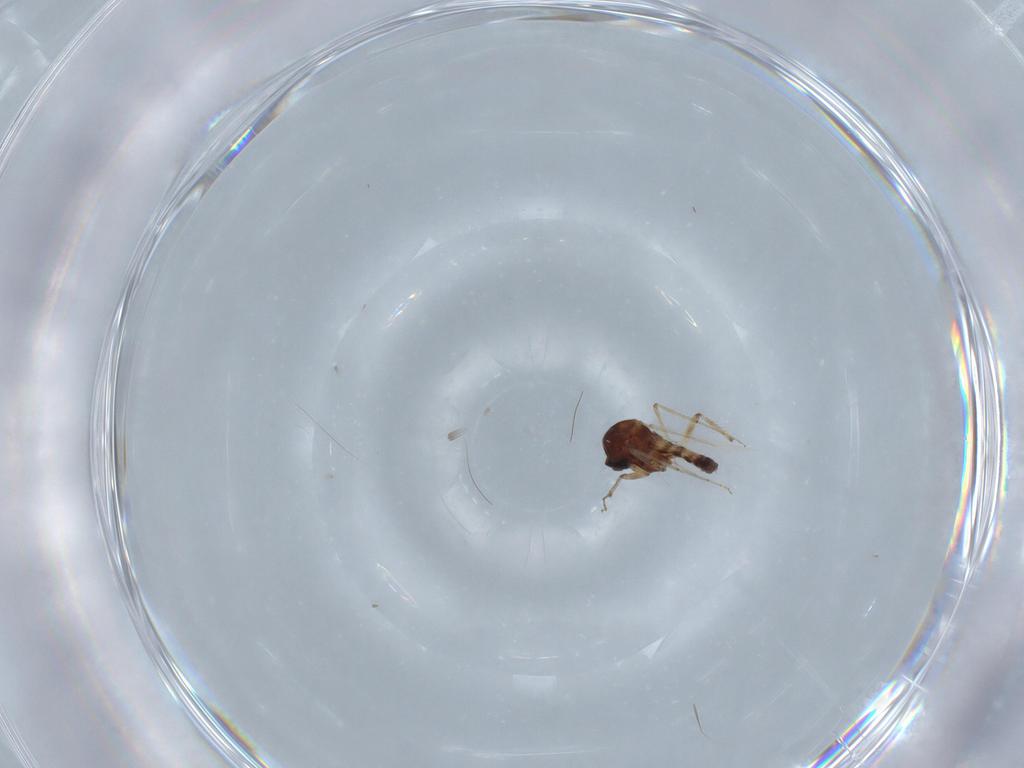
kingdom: Animalia
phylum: Arthropoda
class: Insecta
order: Diptera
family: Ceratopogonidae
